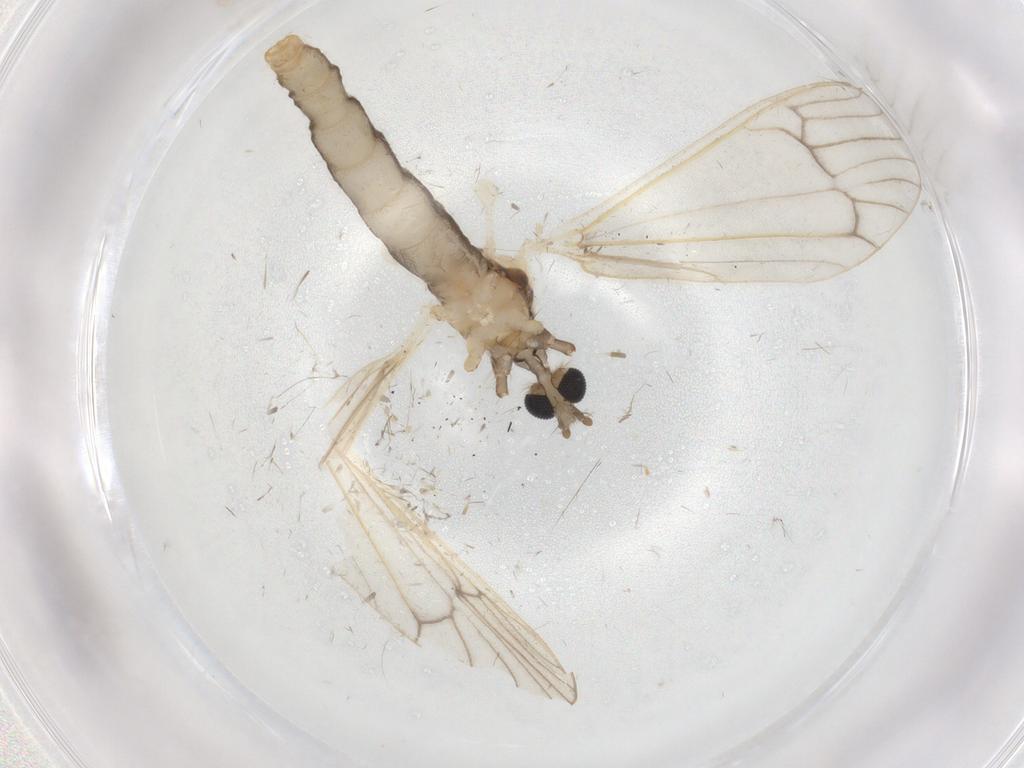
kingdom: Animalia
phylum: Arthropoda
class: Insecta
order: Diptera
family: Mycetophilidae
